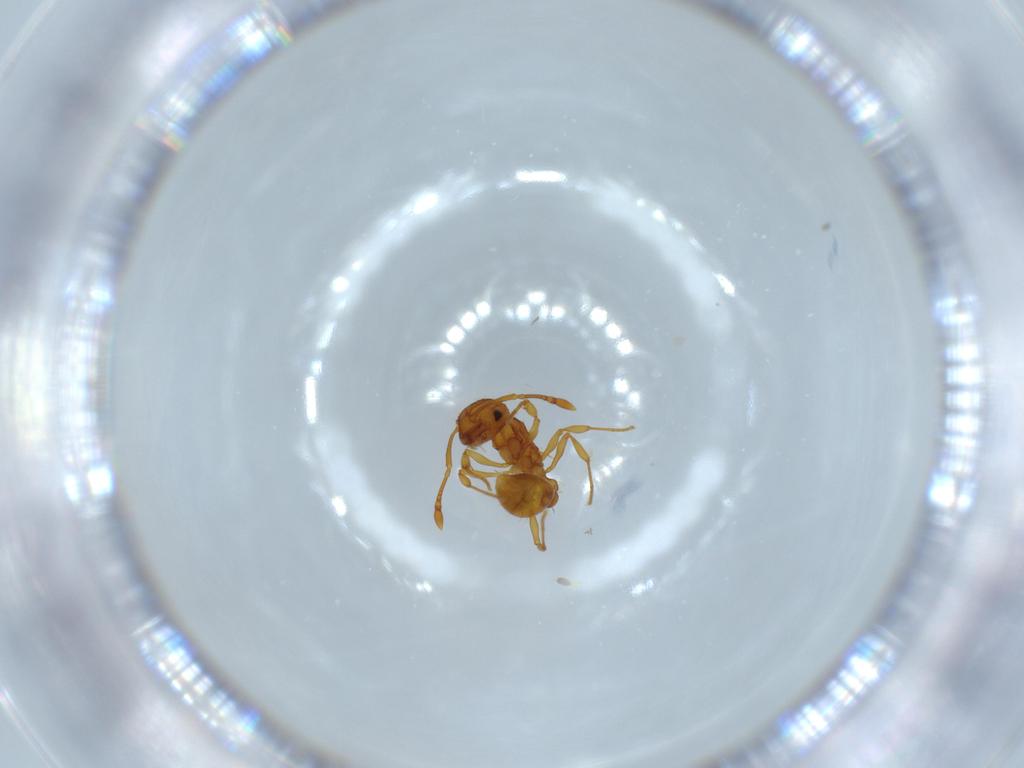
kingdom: Animalia
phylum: Arthropoda
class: Insecta
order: Hymenoptera
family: Formicidae
